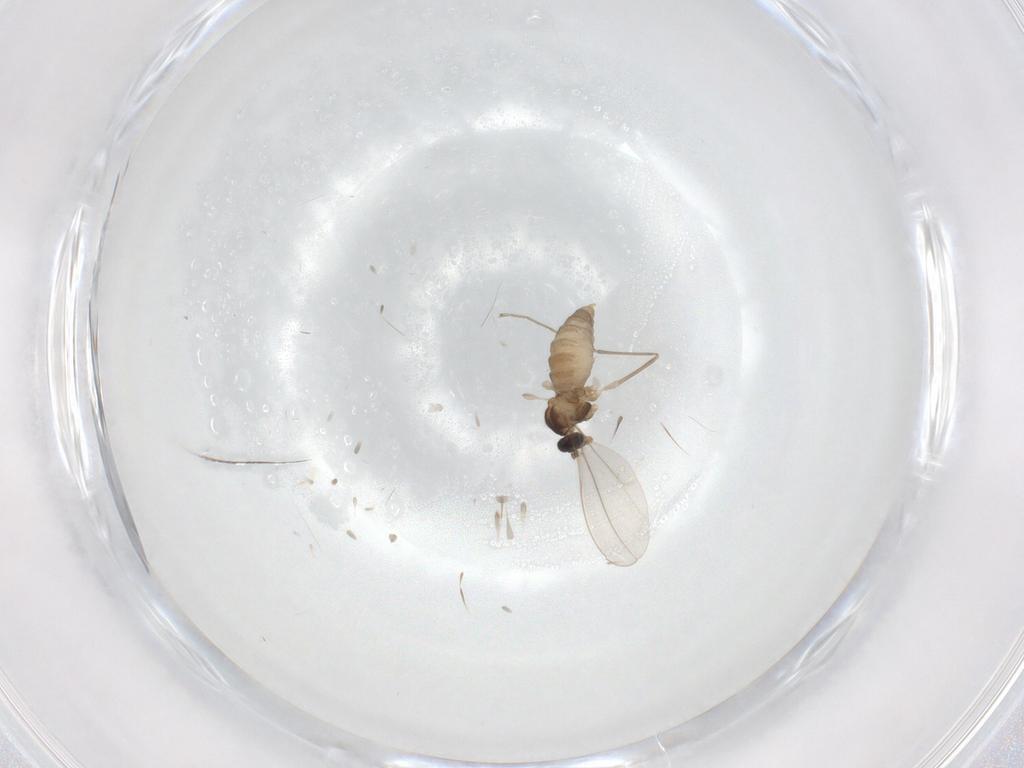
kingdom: Animalia
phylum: Arthropoda
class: Insecta
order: Diptera
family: Cecidomyiidae
